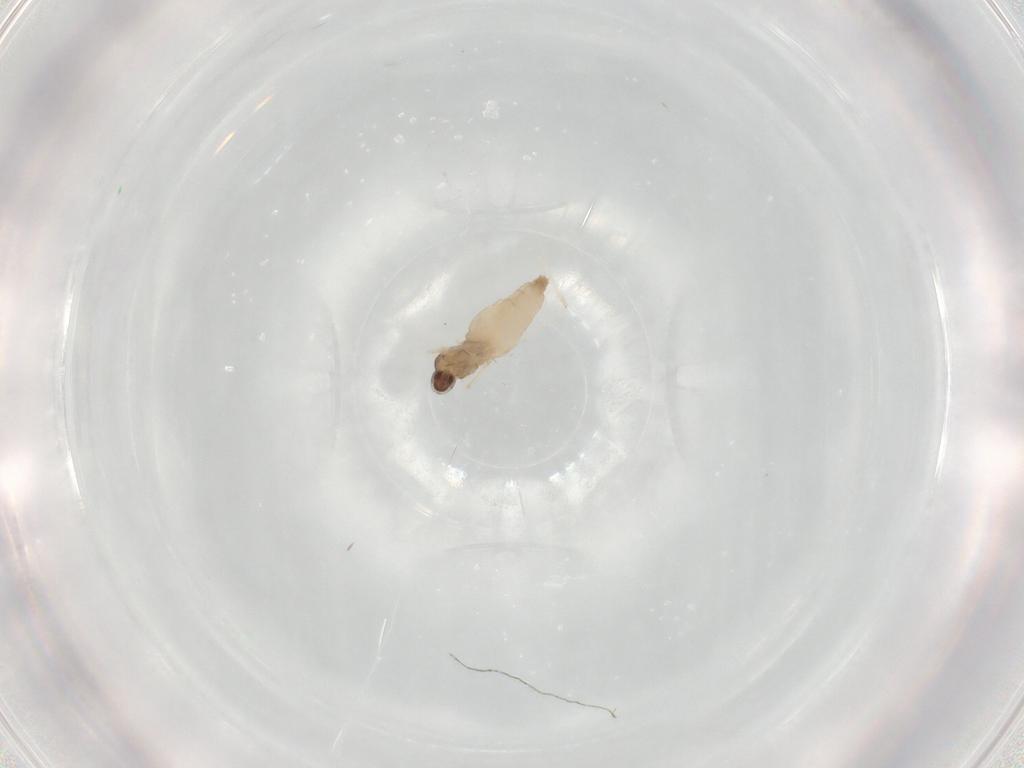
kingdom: Animalia
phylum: Arthropoda
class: Insecta
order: Diptera
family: Cecidomyiidae
